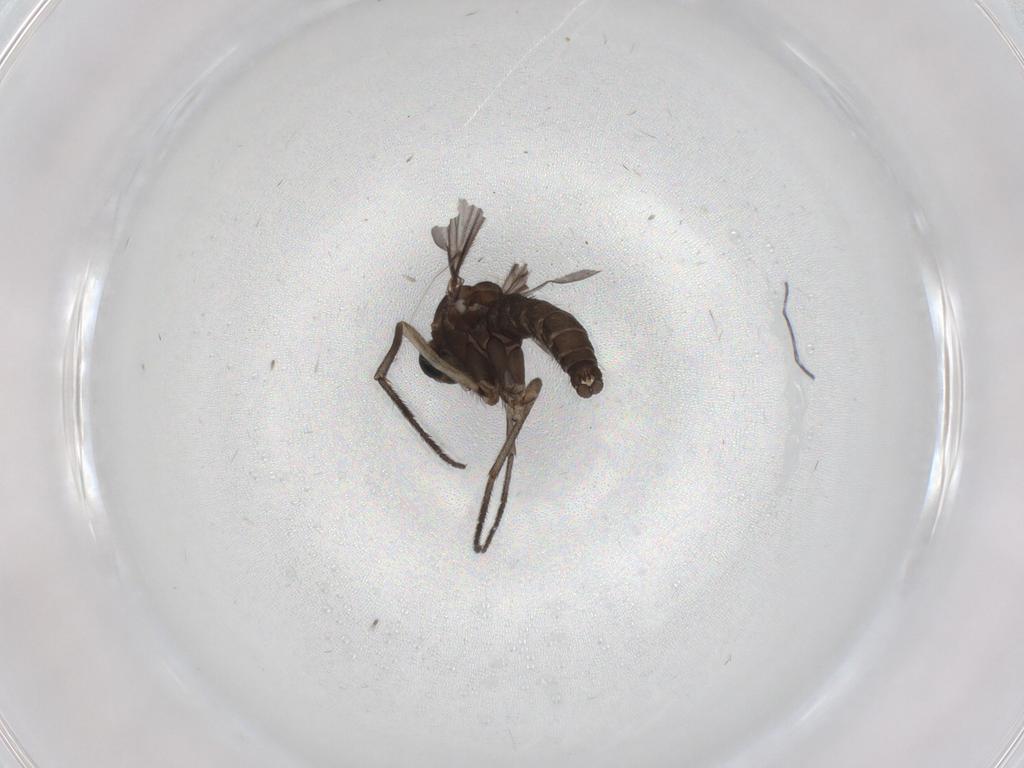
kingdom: Animalia
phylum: Arthropoda
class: Insecta
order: Diptera
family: Sciaridae
